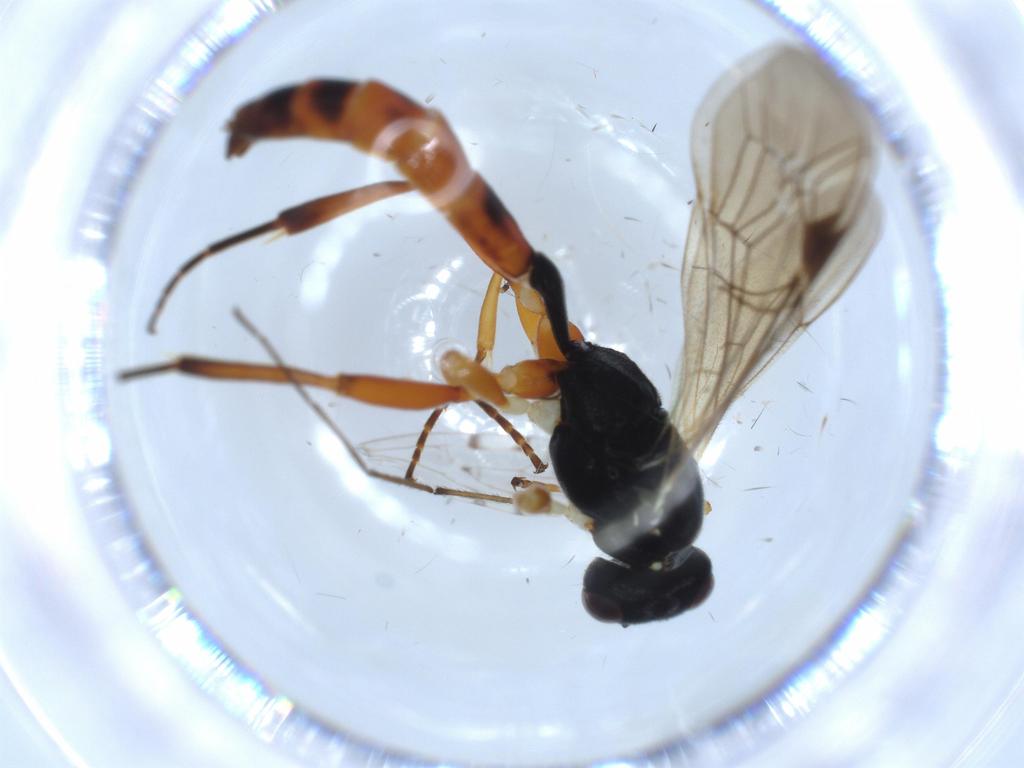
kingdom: Animalia
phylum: Arthropoda
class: Insecta
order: Hymenoptera
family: Ichneumonidae
